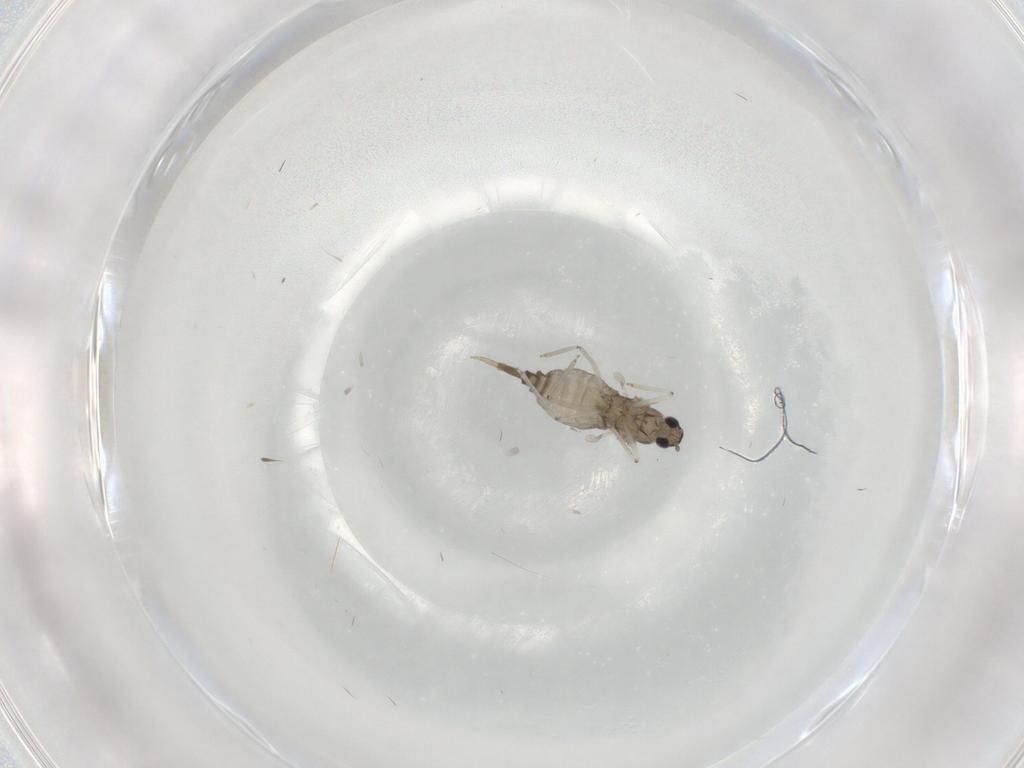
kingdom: Animalia
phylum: Arthropoda
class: Insecta
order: Diptera
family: Cecidomyiidae
